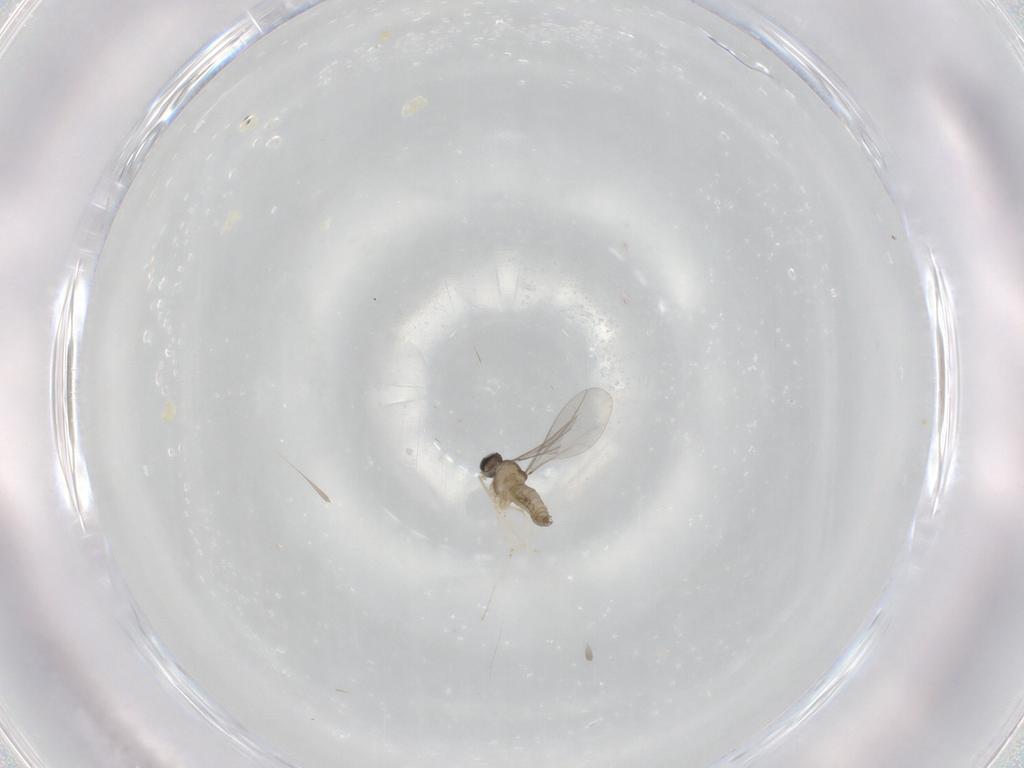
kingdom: Animalia
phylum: Arthropoda
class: Insecta
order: Diptera
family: Cecidomyiidae
